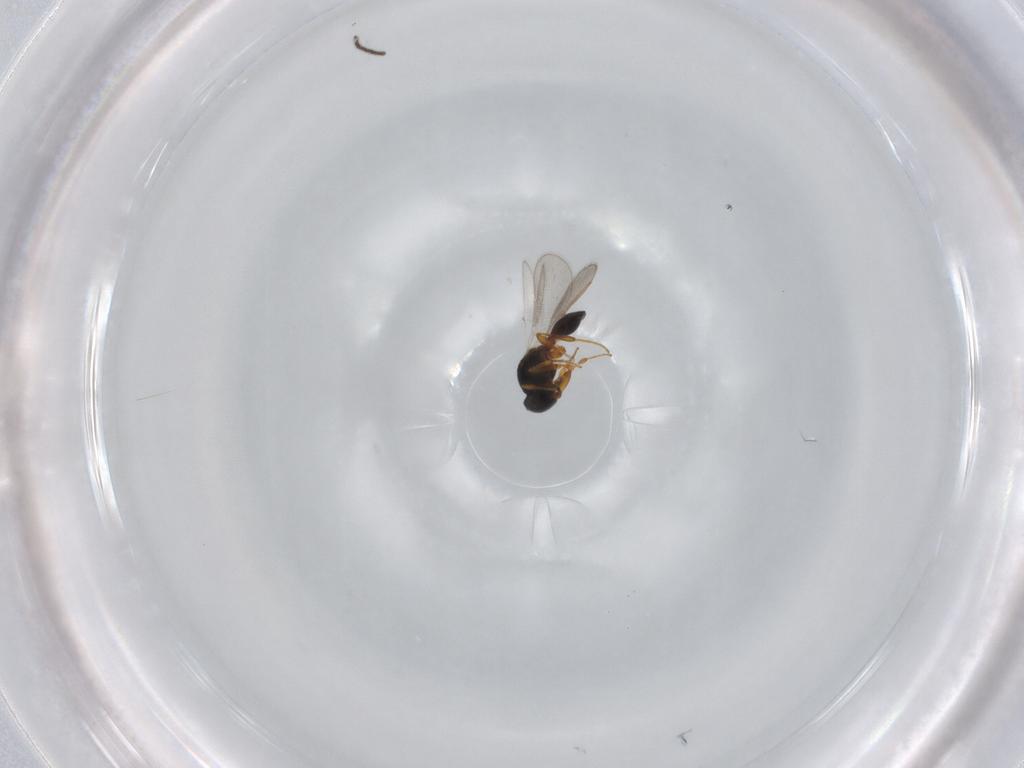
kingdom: Animalia
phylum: Arthropoda
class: Insecta
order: Hymenoptera
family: Platygastridae
